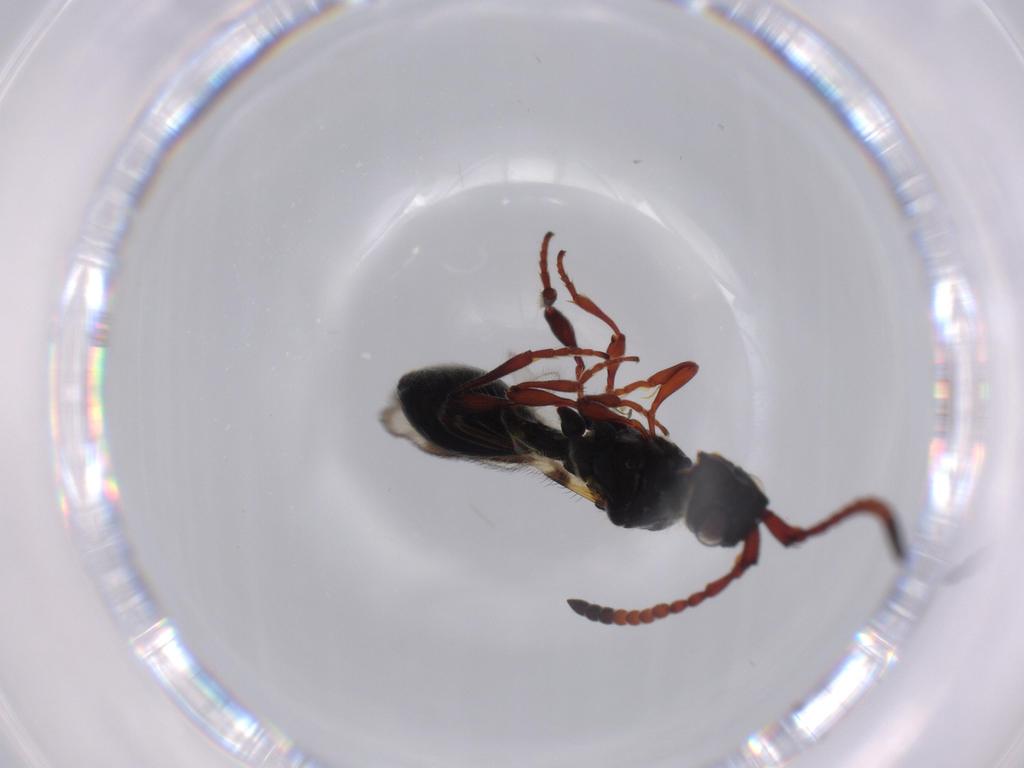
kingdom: Animalia
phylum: Arthropoda
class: Insecta
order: Hymenoptera
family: Diapriidae
